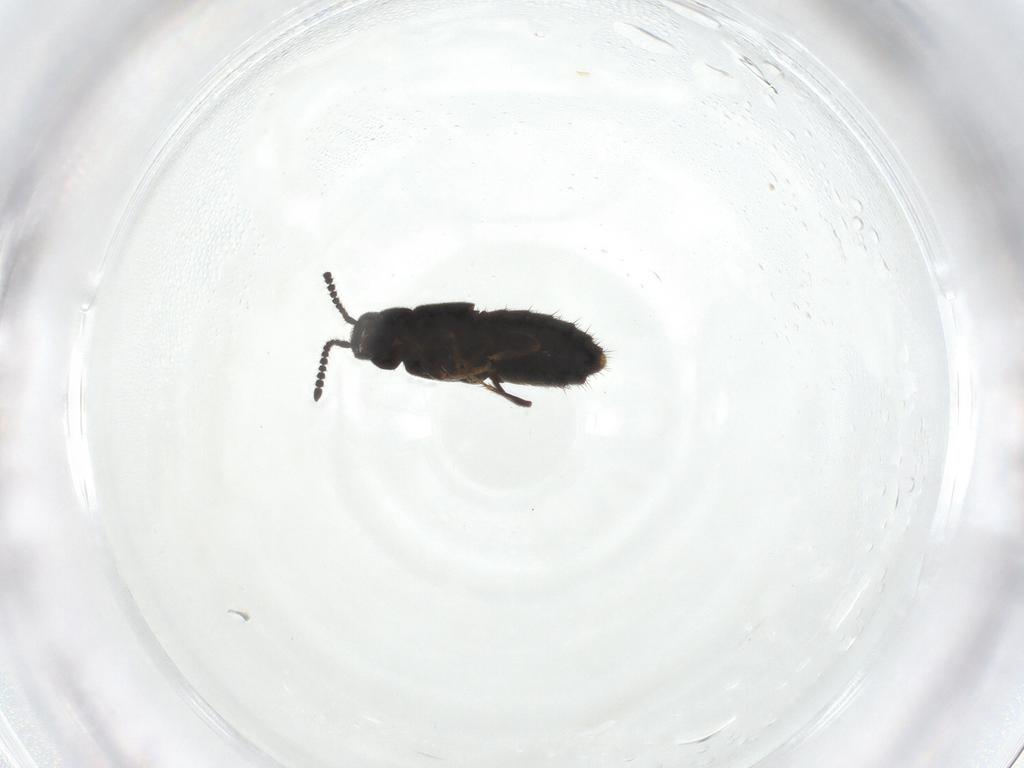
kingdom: Animalia
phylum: Arthropoda
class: Insecta
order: Coleoptera
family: Staphylinidae
